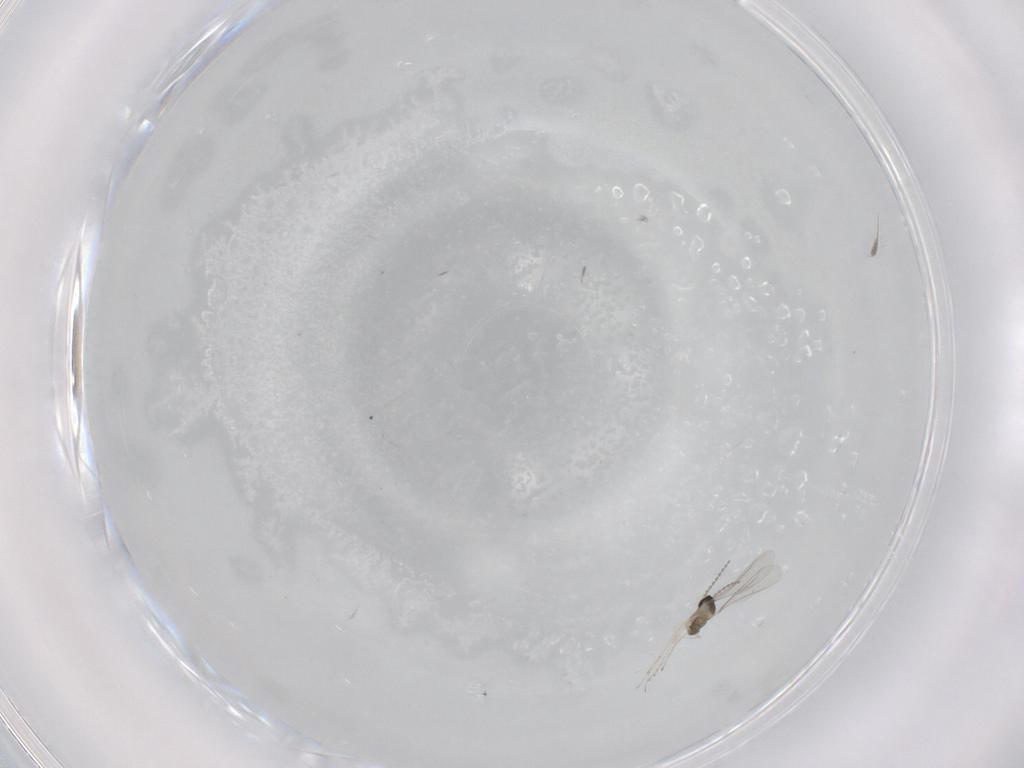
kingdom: Animalia
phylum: Arthropoda
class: Insecta
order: Diptera
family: Cecidomyiidae
